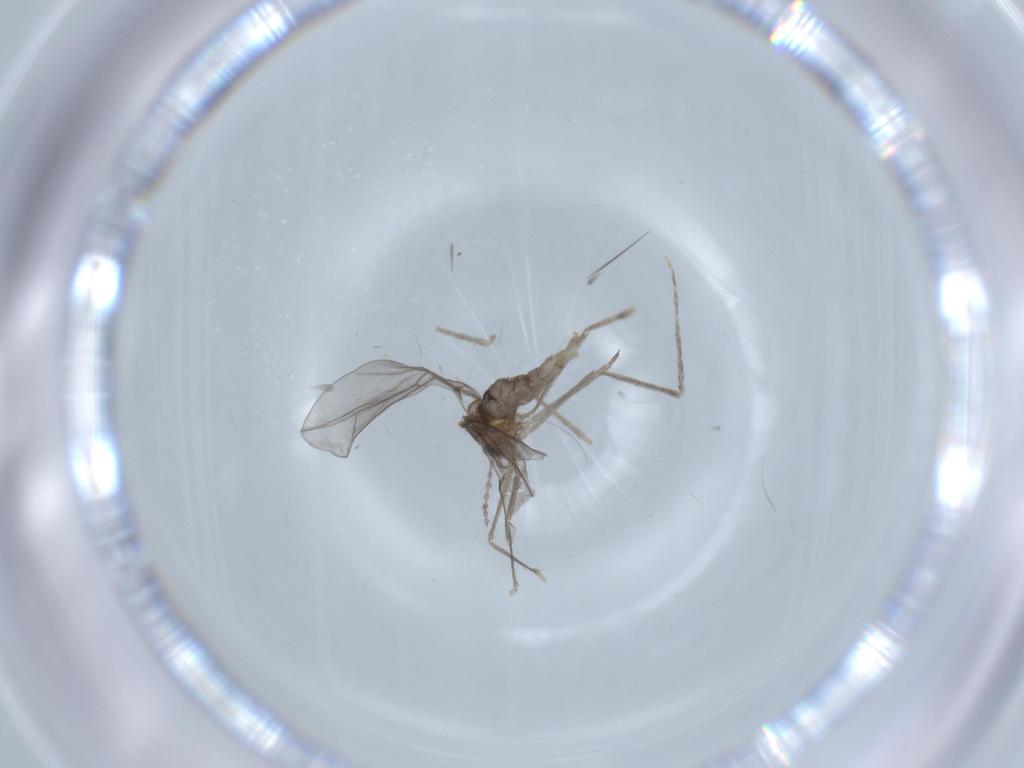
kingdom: Animalia
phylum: Arthropoda
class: Insecta
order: Diptera
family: Cecidomyiidae
